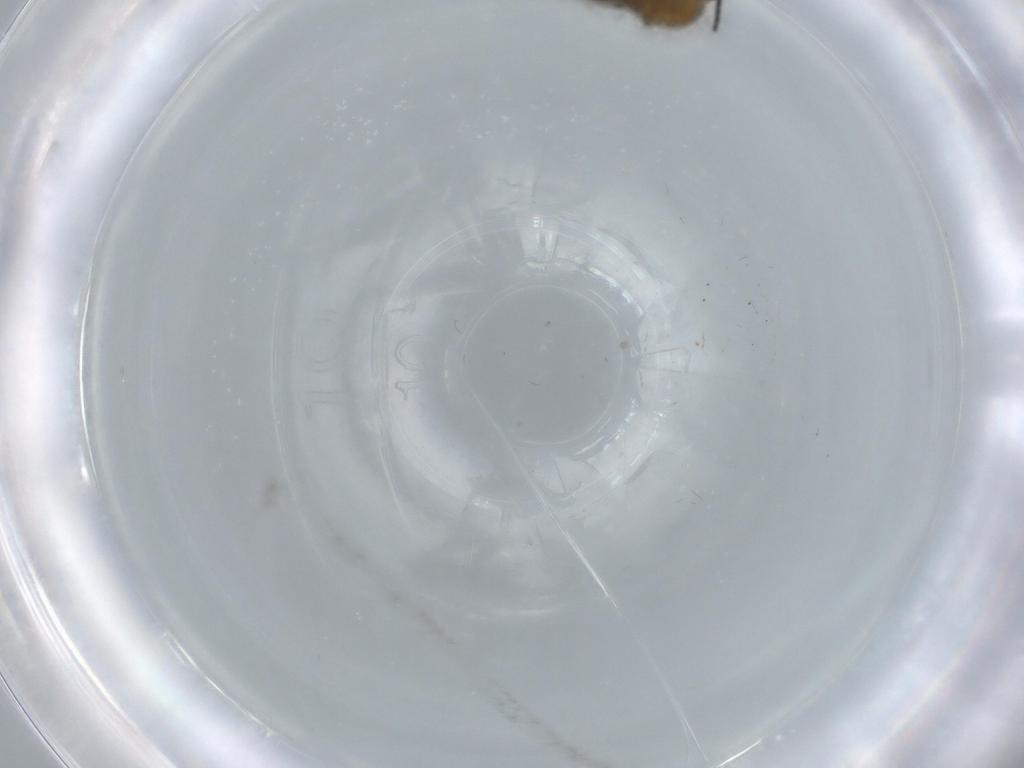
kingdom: Animalia
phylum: Arthropoda
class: Insecta
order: Diptera
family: Sciaridae
